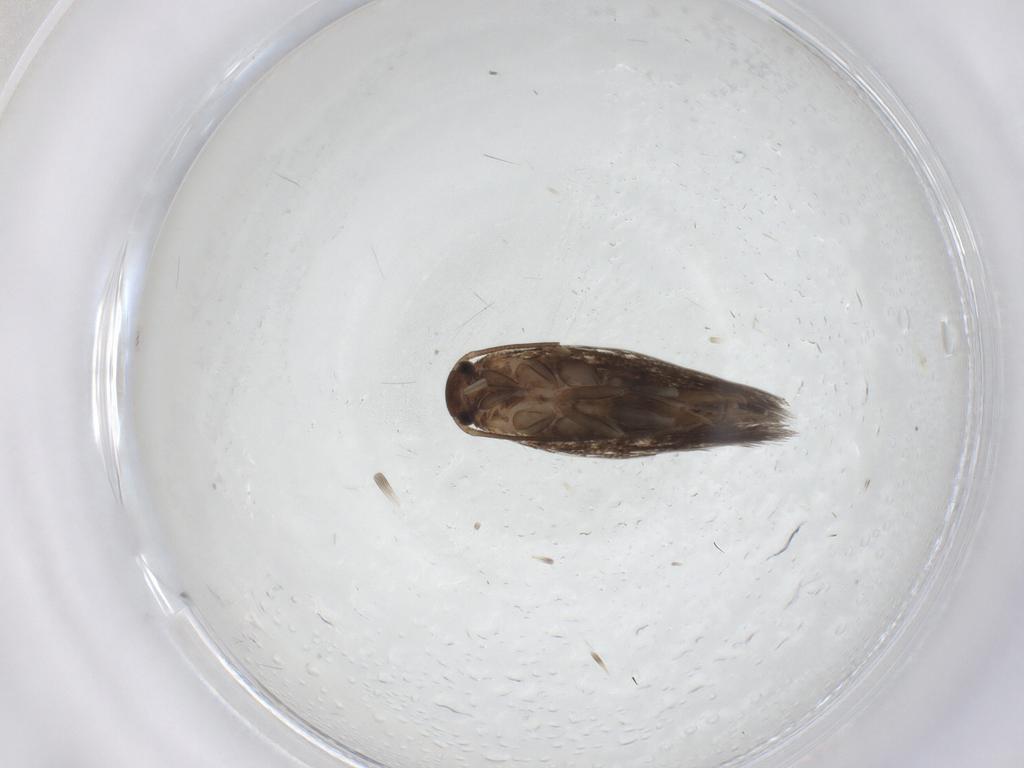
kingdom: Animalia
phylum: Arthropoda
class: Insecta
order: Lepidoptera
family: Elachistidae
